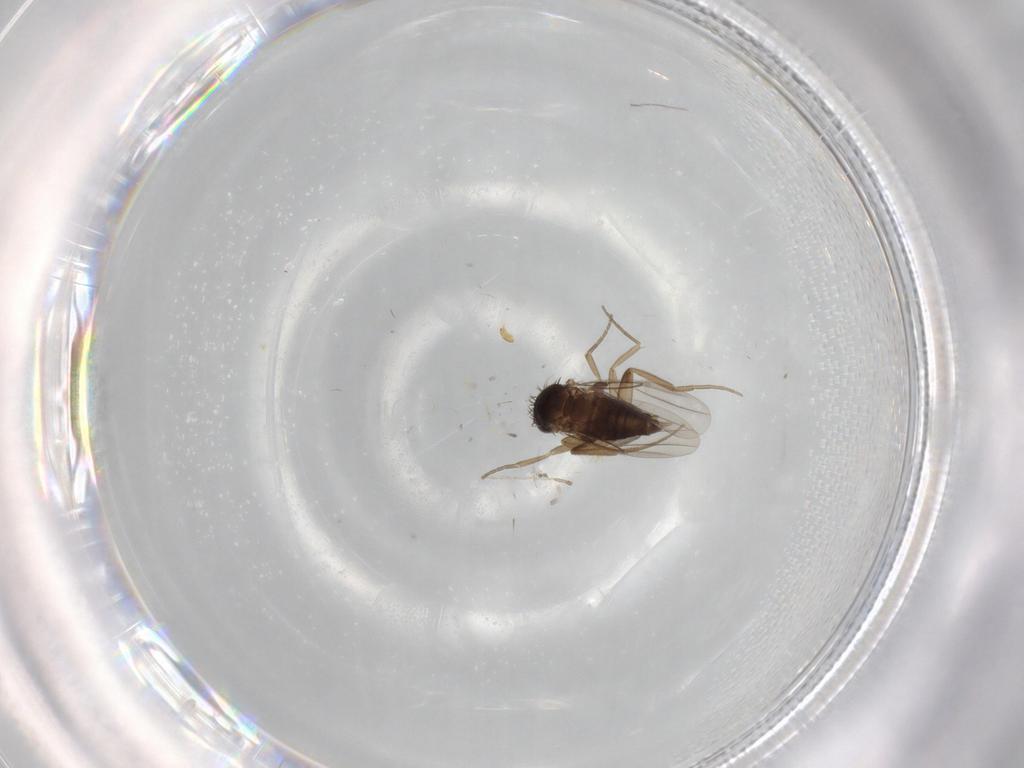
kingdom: Animalia
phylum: Arthropoda
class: Insecta
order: Diptera
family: Phoridae
